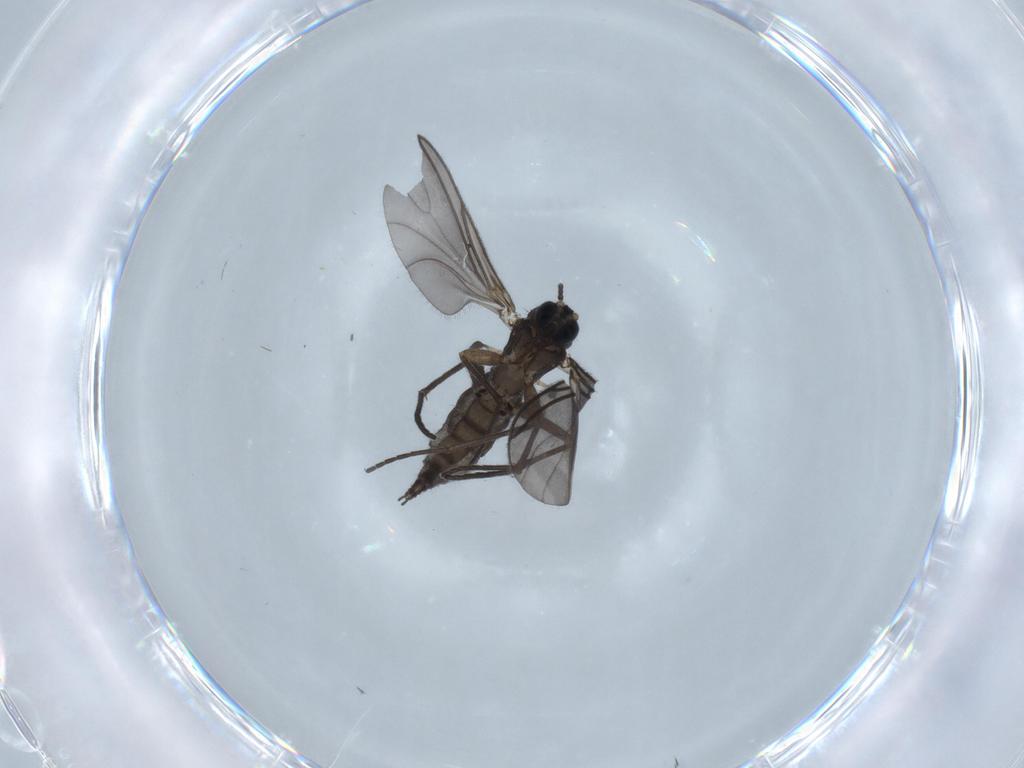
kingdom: Animalia
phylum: Arthropoda
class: Insecta
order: Diptera
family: Sciaridae
